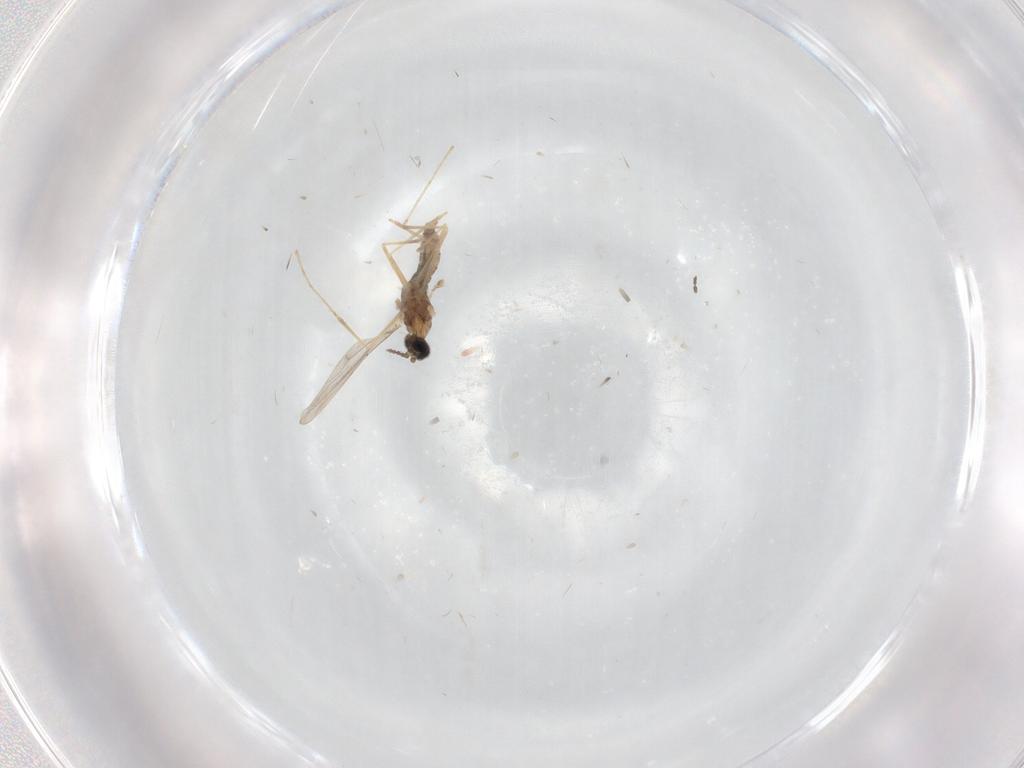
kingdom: Animalia
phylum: Arthropoda
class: Insecta
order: Diptera
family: Cecidomyiidae
